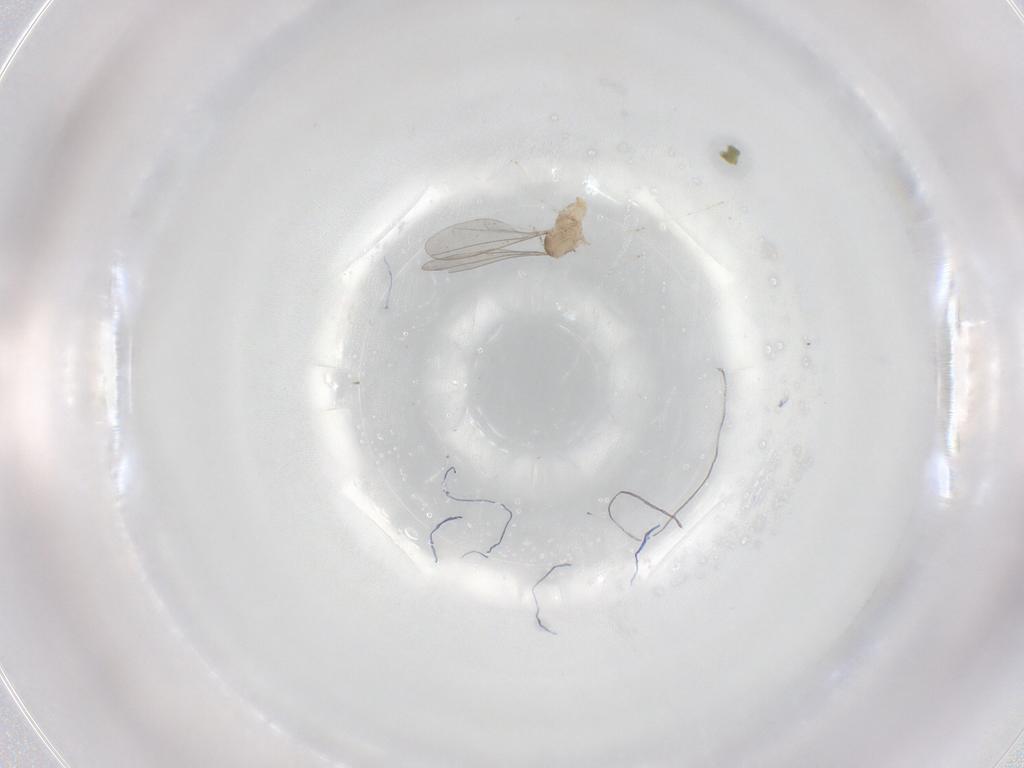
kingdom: Animalia
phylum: Arthropoda
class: Insecta
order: Diptera
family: Cecidomyiidae
